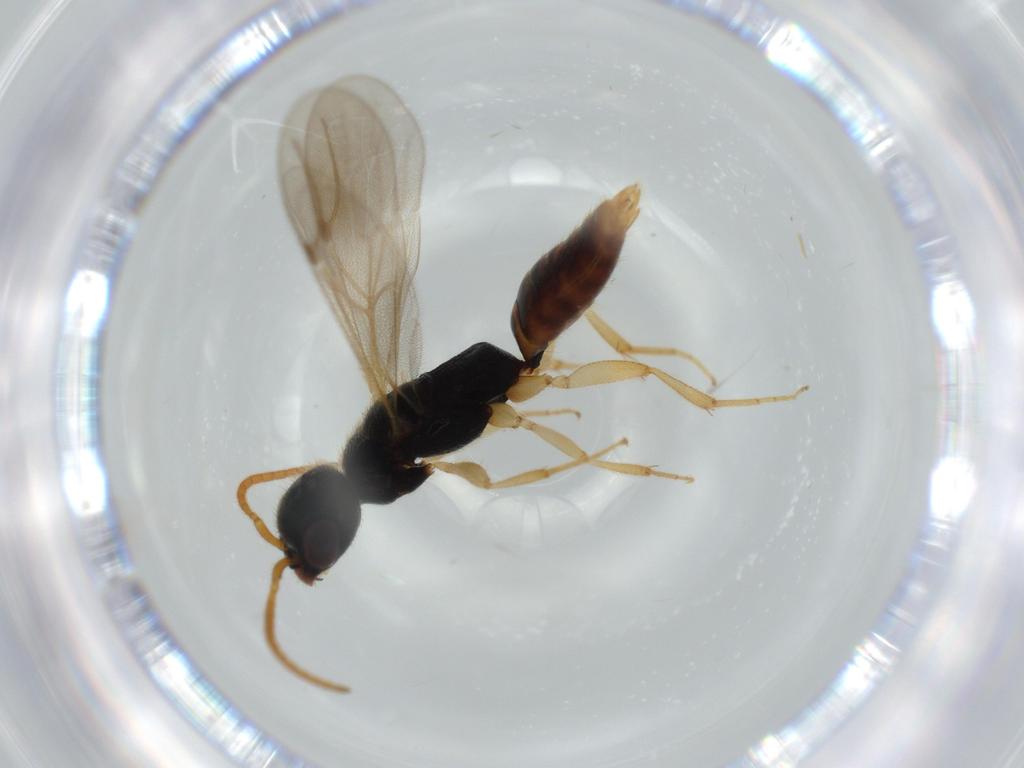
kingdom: Animalia
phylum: Arthropoda
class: Insecta
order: Hymenoptera
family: Bethylidae
